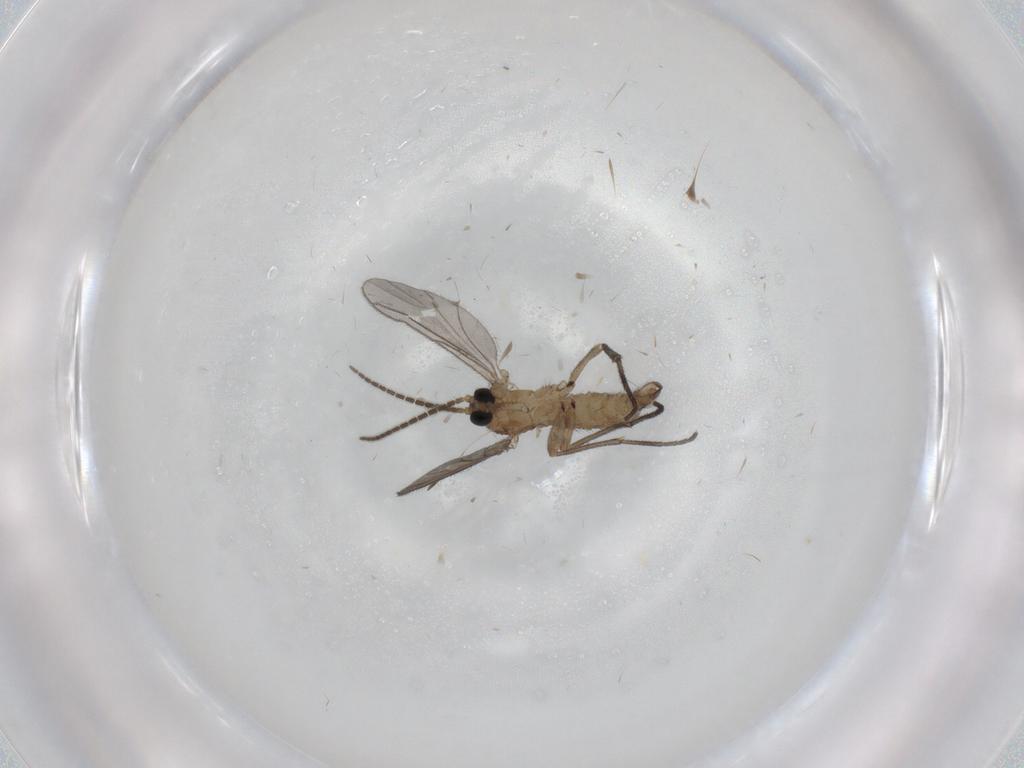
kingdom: Animalia
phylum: Arthropoda
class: Insecta
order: Diptera
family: Sciaridae
